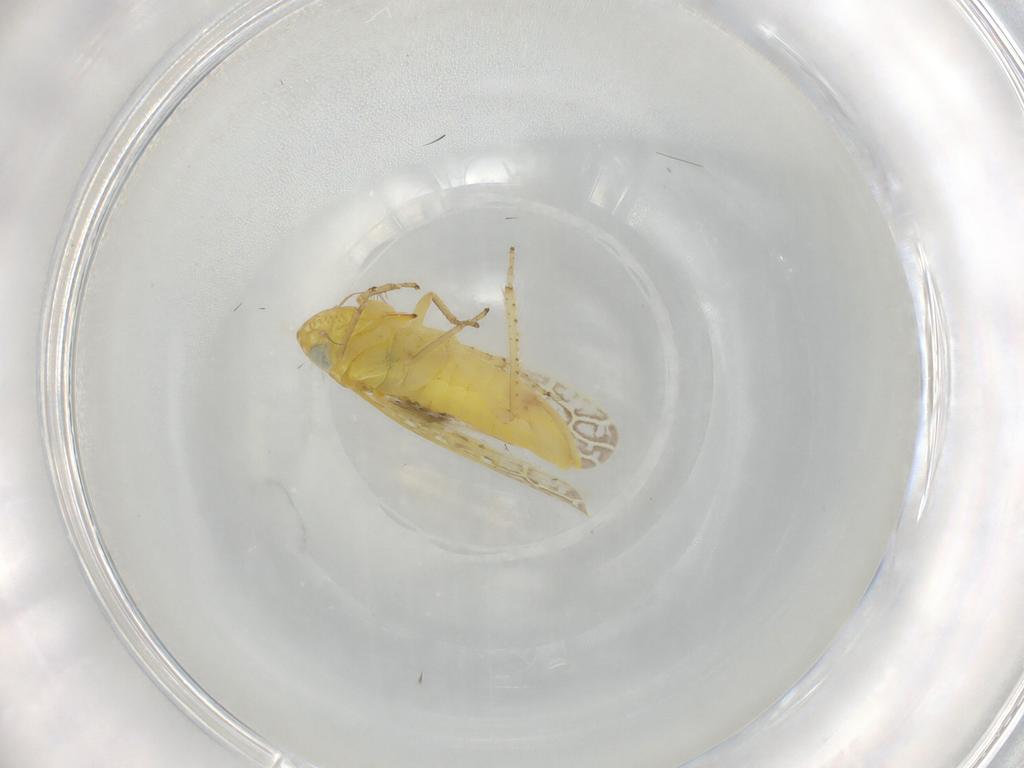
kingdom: Animalia
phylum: Arthropoda
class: Insecta
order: Hemiptera
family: Cicadellidae
